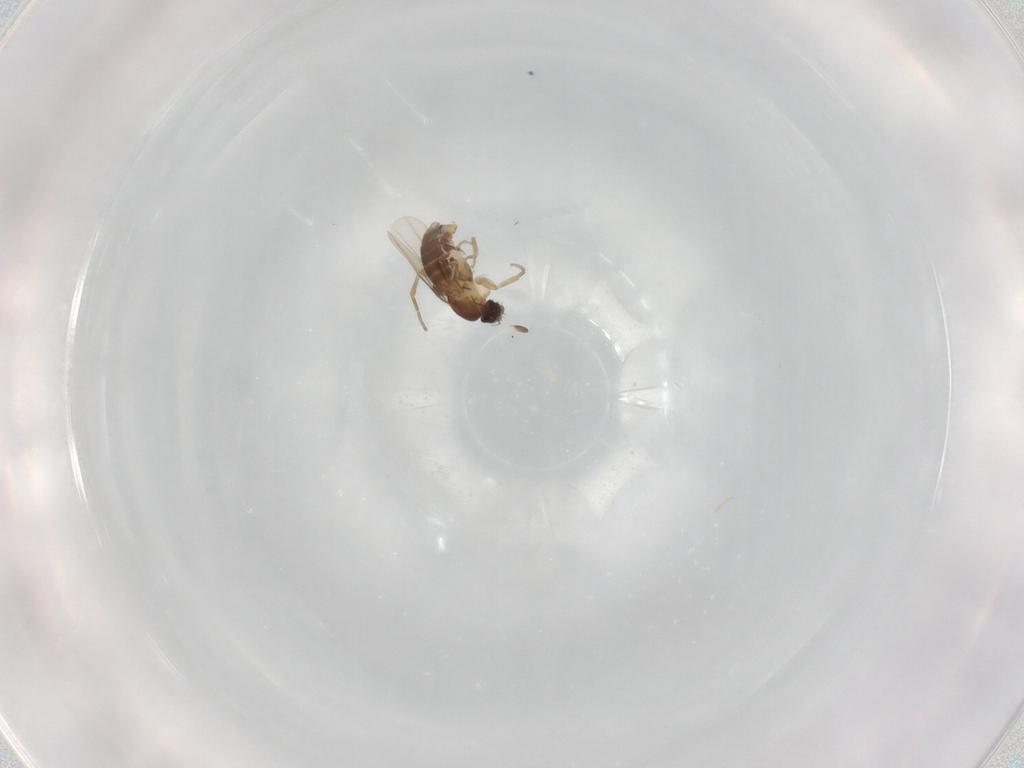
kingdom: Animalia
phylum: Arthropoda
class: Insecta
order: Diptera
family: Phoridae
